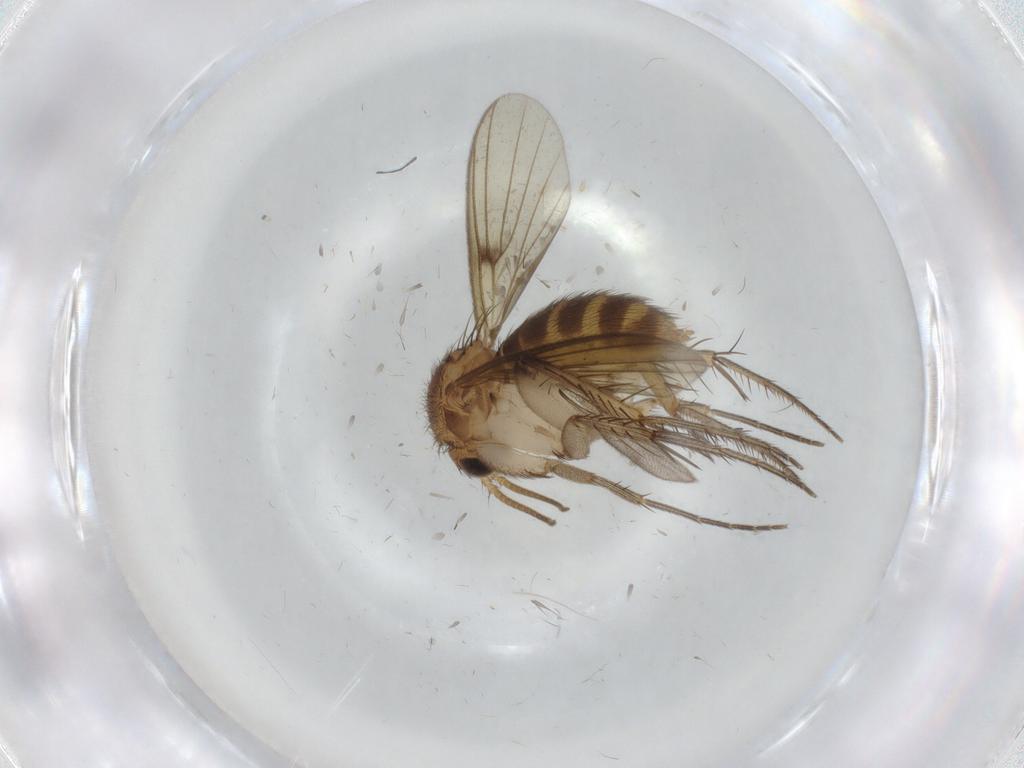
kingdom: Animalia
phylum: Arthropoda
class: Insecta
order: Diptera
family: Mycetophilidae
